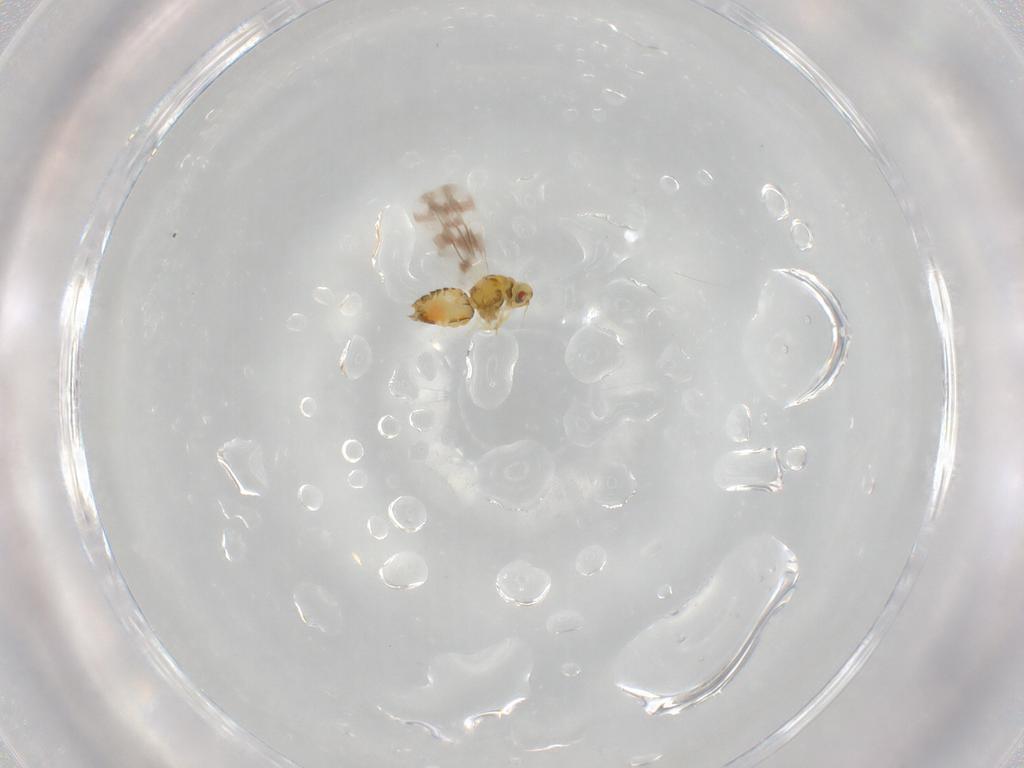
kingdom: Animalia
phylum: Arthropoda
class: Insecta
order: Hemiptera
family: Aleyrodidae
